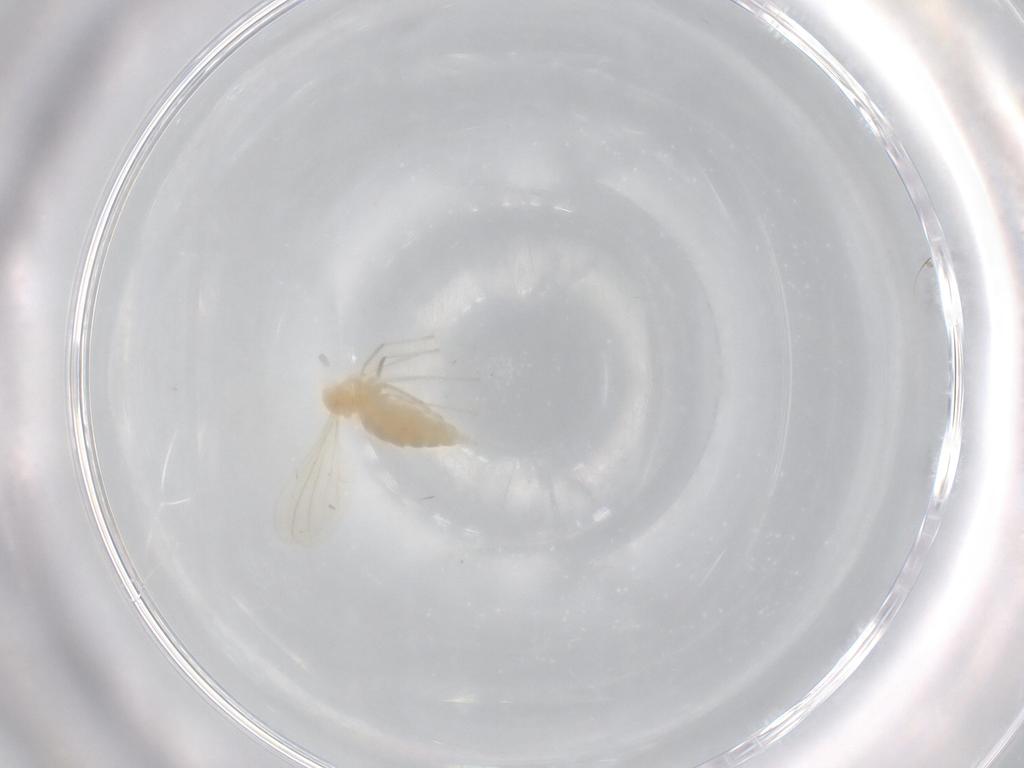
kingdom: Animalia
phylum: Arthropoda
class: Insecta
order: Diptera
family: Cecidomyiidae
